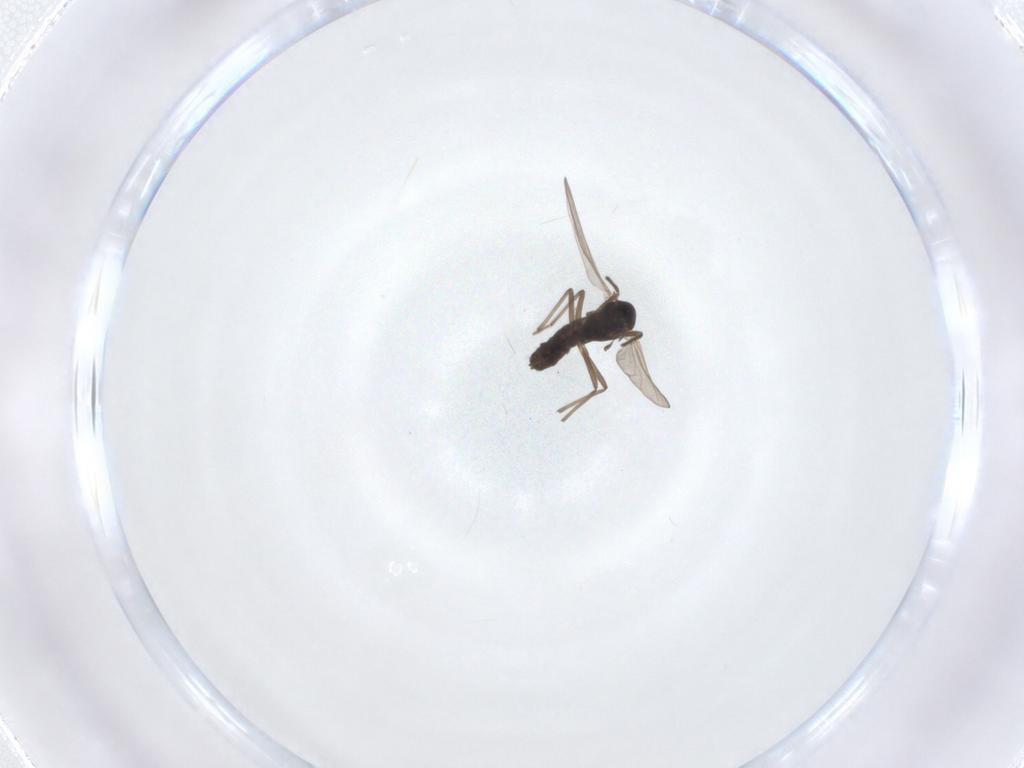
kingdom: Animalia
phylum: Arthropoda
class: Insecta
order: Diptera
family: Chironomidae
